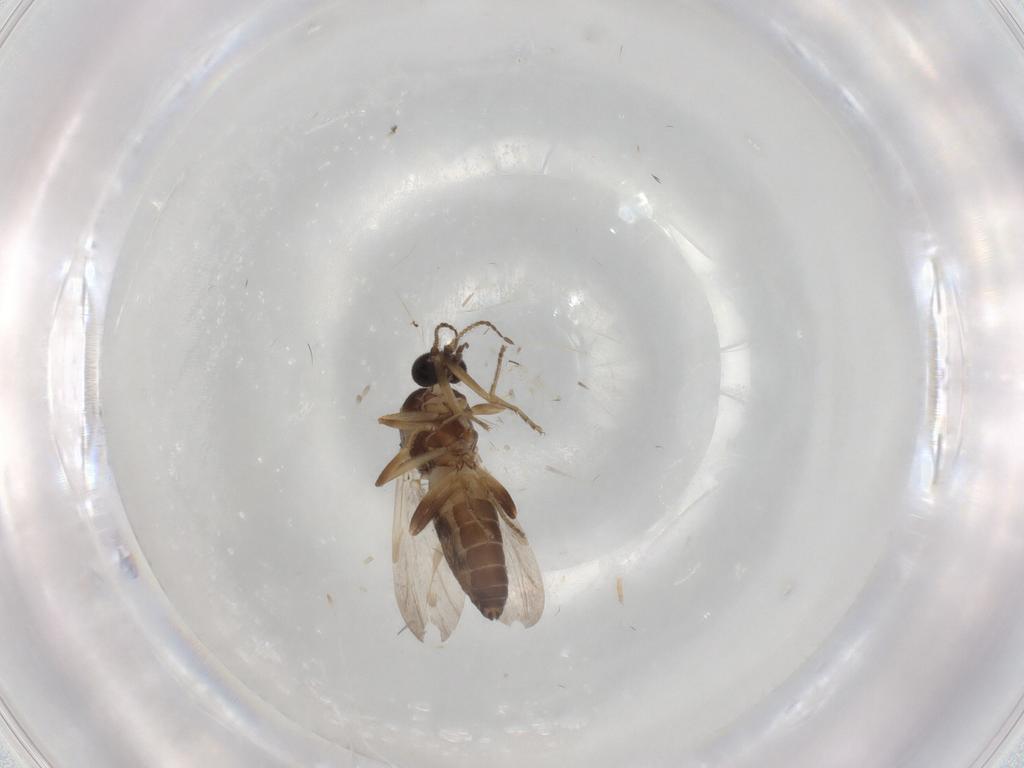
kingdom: Animalia
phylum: Arthropoda
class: Insecta
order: Diptera
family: Ceratopogonidae
